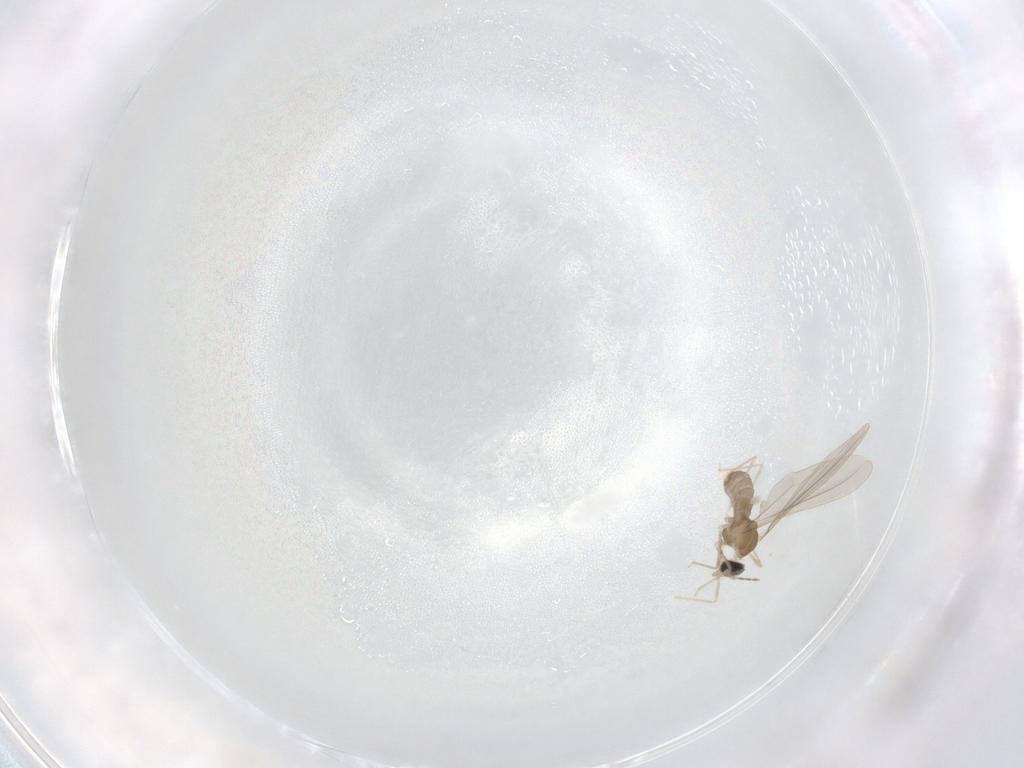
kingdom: Animalia
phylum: Arthropoda
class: Insecta
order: Diptera
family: Cecidomyiidae
